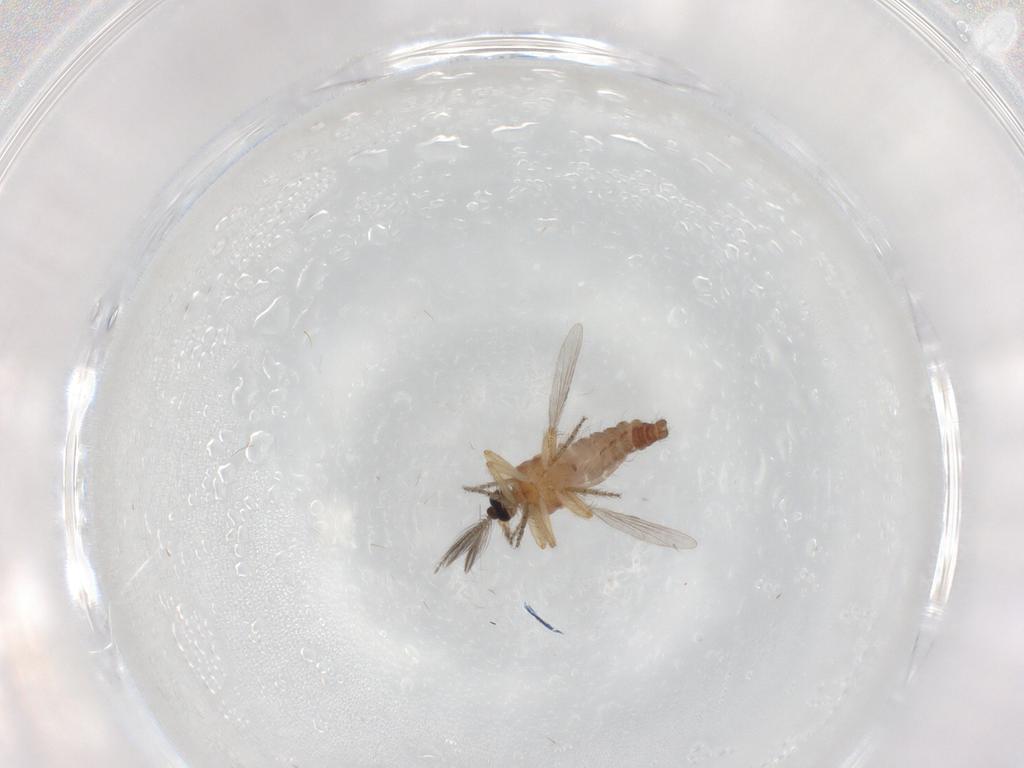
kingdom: Animalia
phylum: Arthropoda
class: Insecta
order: Diptera
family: Ceratopogonidae
